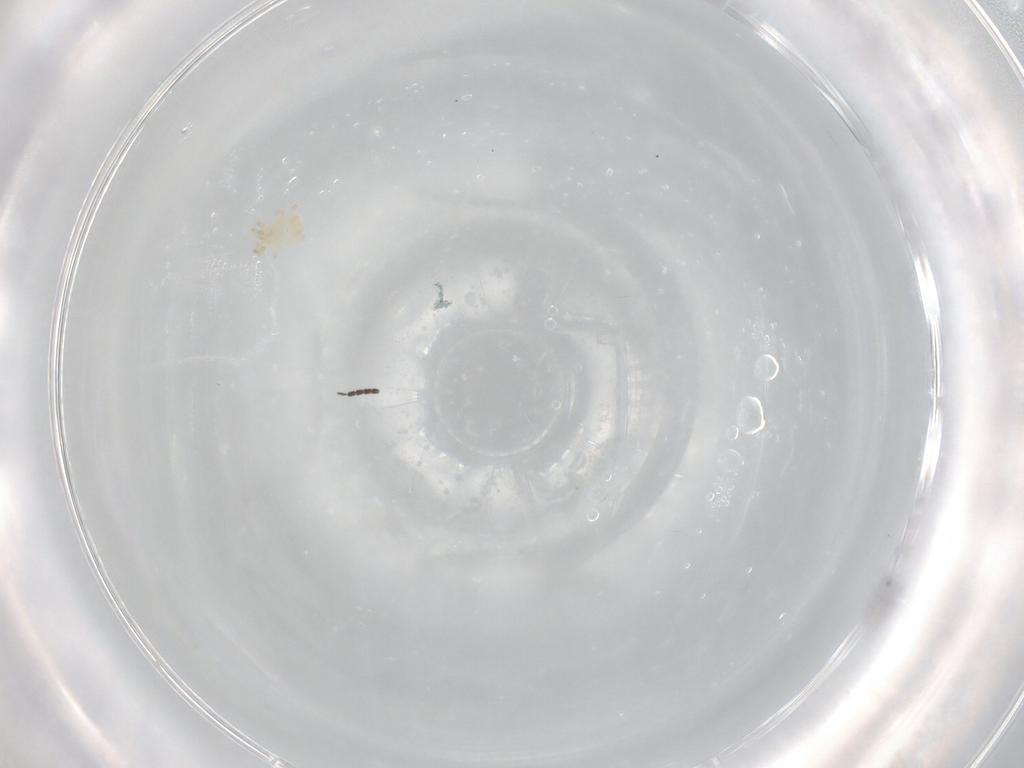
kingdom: Animalia
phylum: Arthropoda
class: Arachnida
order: Mesostigmata
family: Phytoseiidae
